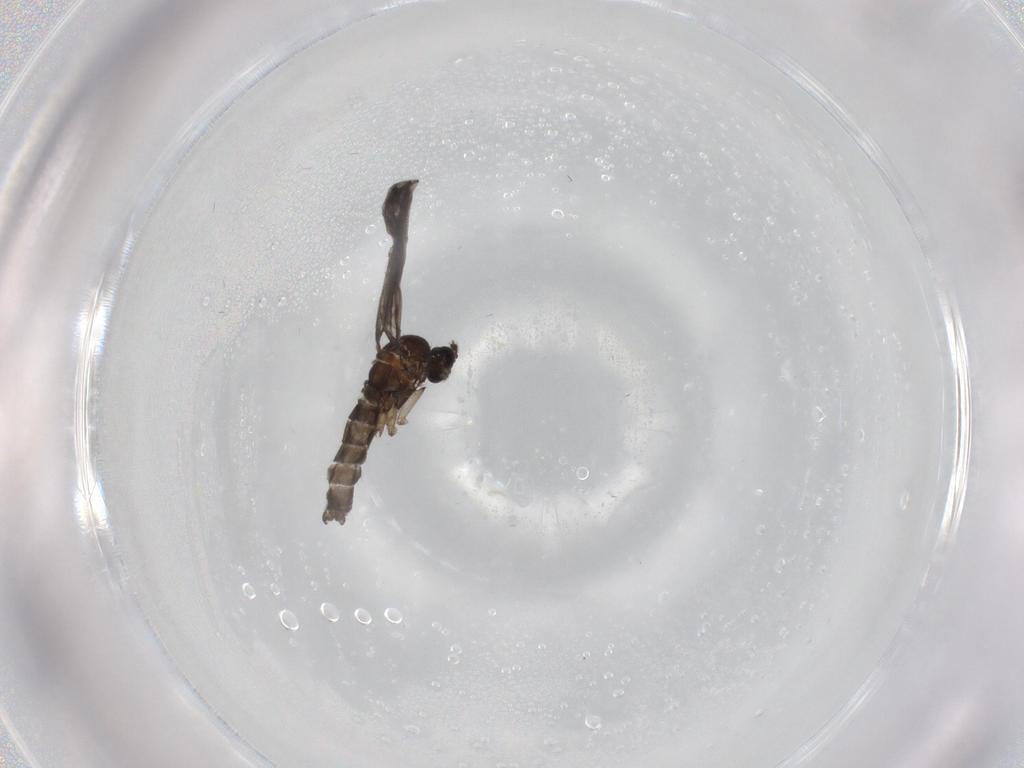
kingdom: Animalia
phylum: Arthropoda
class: Insecta
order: Diptera
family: Cecidomyiidae
